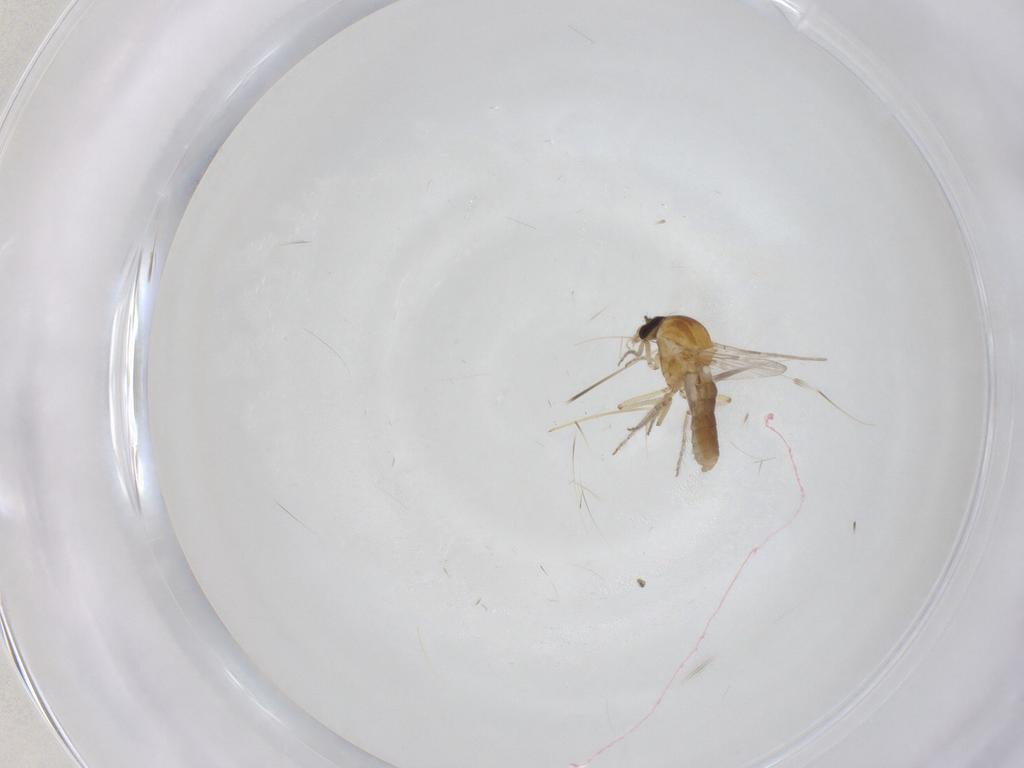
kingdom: Animalia
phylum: Arthropoda
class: Insecta
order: Diptera
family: Ceratopogonidae
